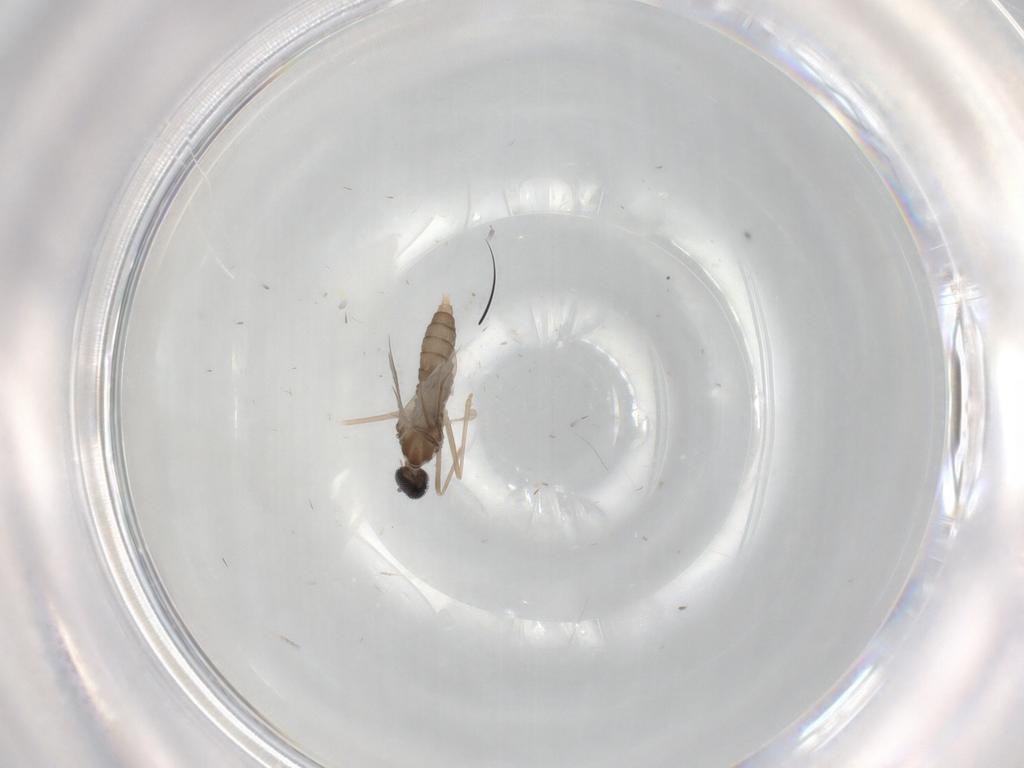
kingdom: Animalia
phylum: Arthropoda
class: Insecta
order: Diptera
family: Cecidomyiidae
